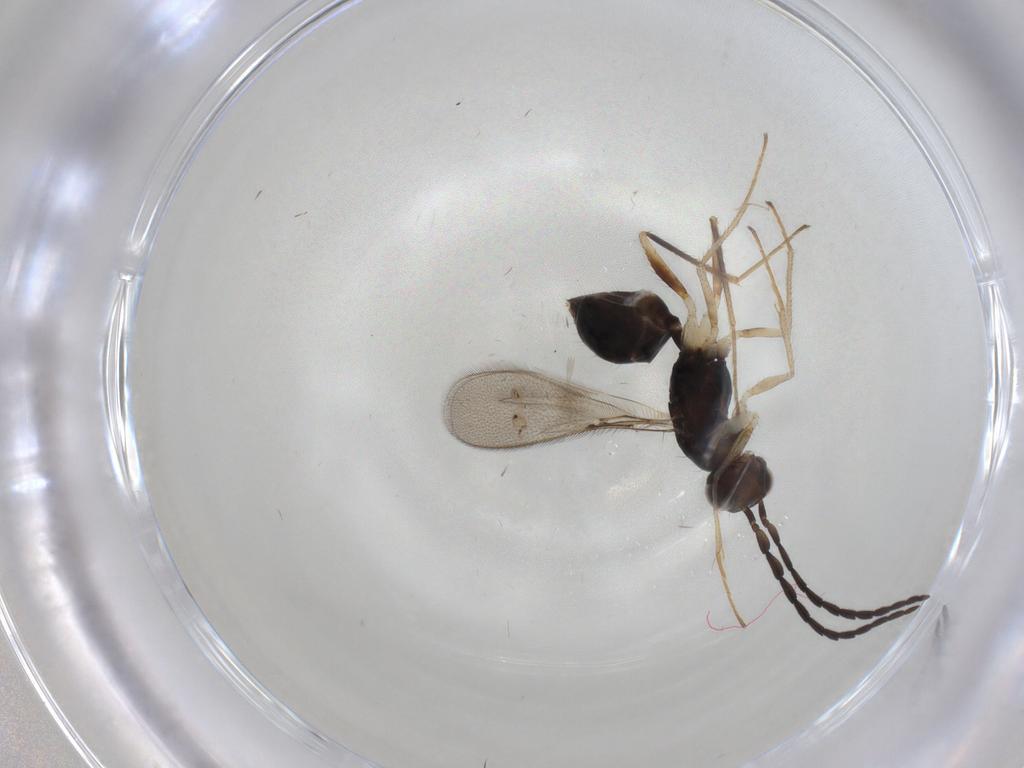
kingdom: Animalia
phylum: Arthropoda
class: Insecta
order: Hymenoptera
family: Mymaridae
